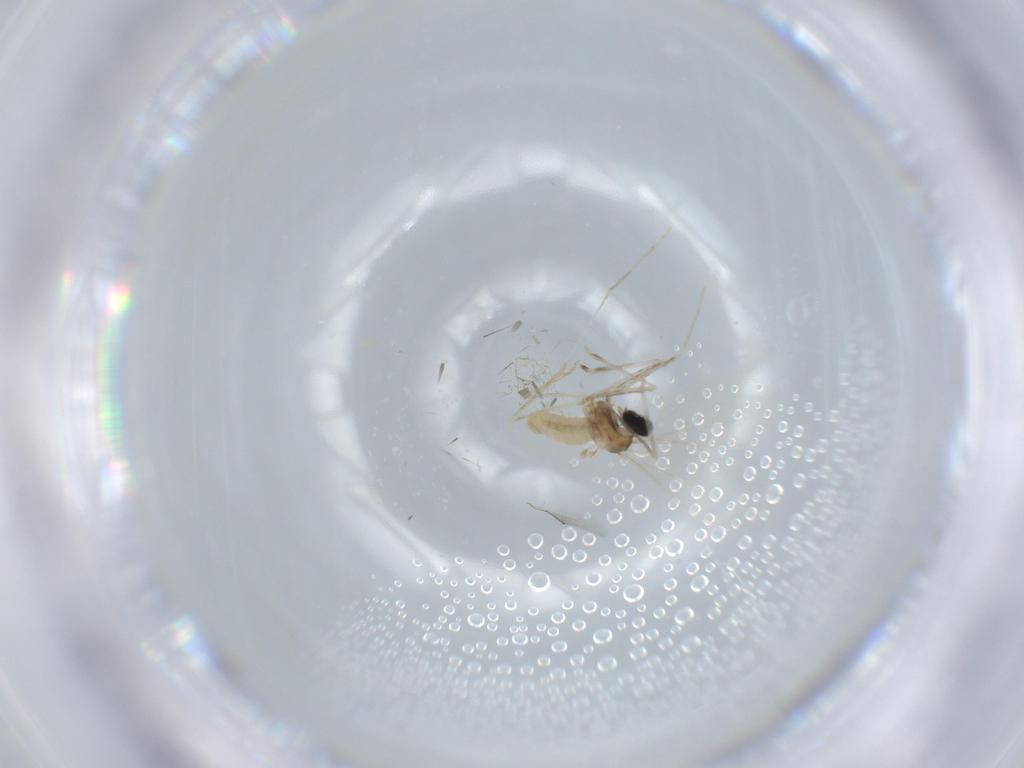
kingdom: Animalia
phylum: Arthropoda
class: Insecta
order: Diptera
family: Cecidomyiidae
